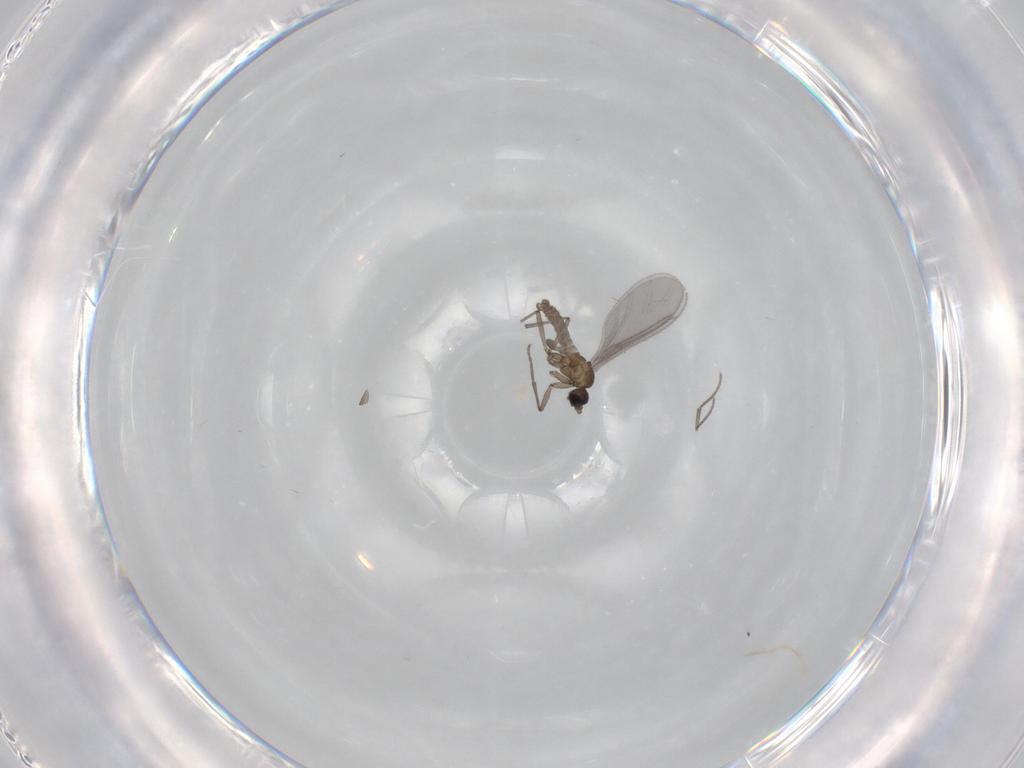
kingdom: Animalia
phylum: Arthropoda
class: Insecta
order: Diptera
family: Sciaridae
